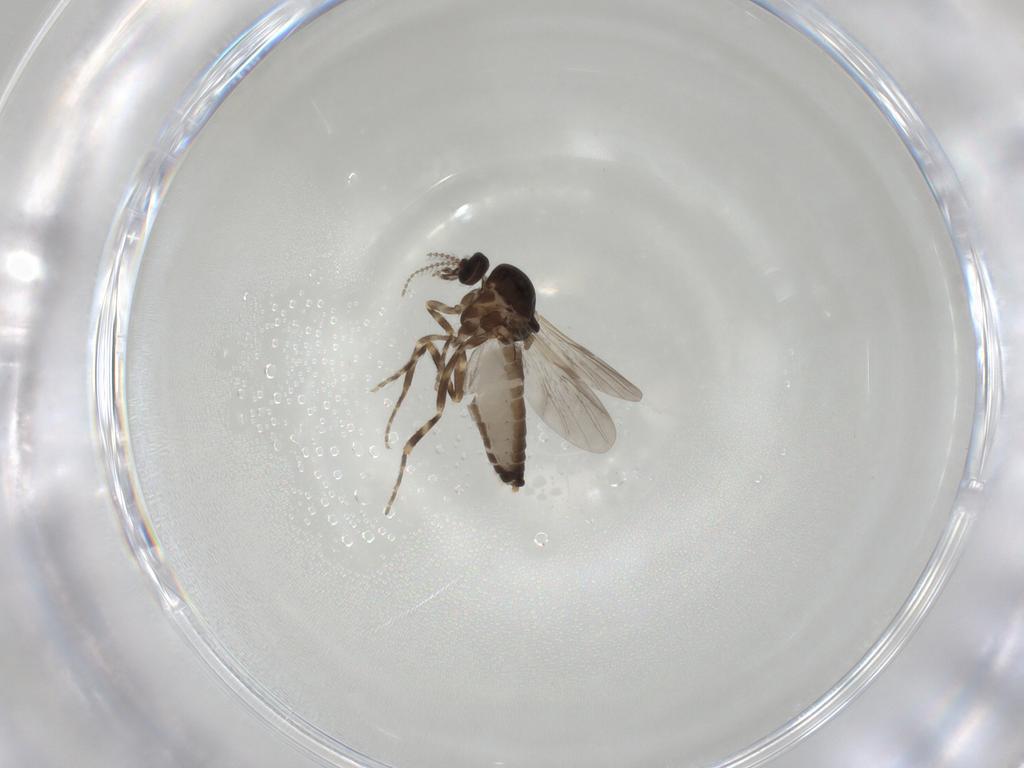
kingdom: Animalia
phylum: Arthropoda
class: Insecta
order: Diptera
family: Ceratopogonidae
